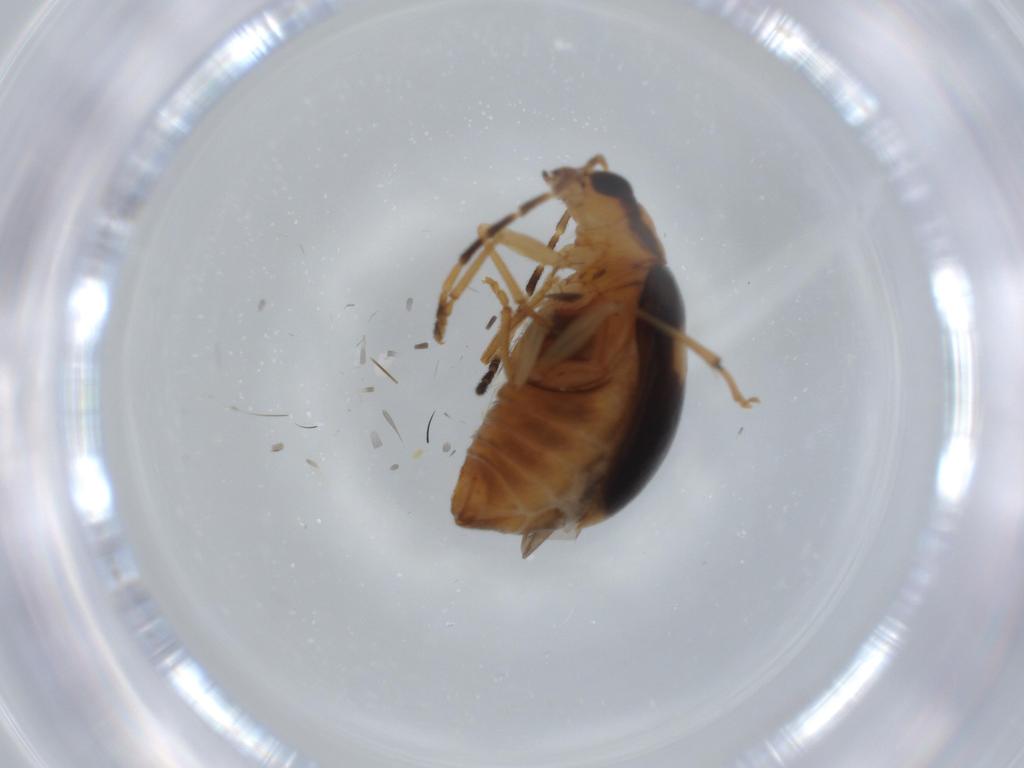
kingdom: Animalia
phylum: Arthropoda
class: Insecta
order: Coleoptera
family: Chrysomelidae
